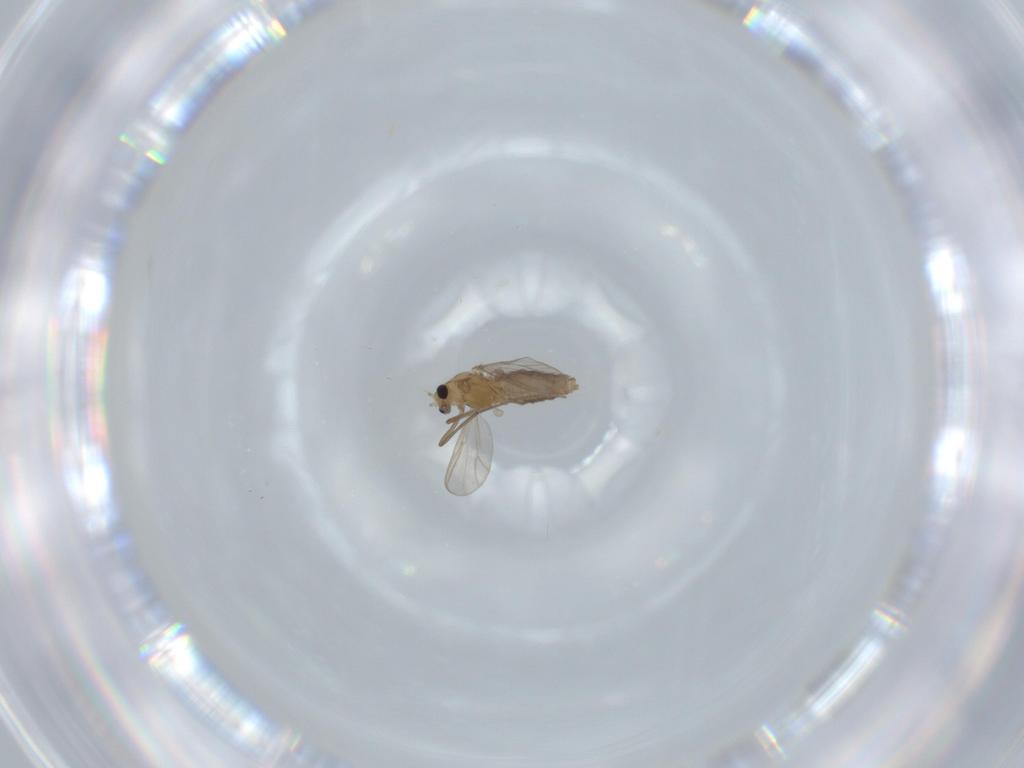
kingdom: Animalia
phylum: Arthropoda
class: Insecta
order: Diptera
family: Chironomidae
